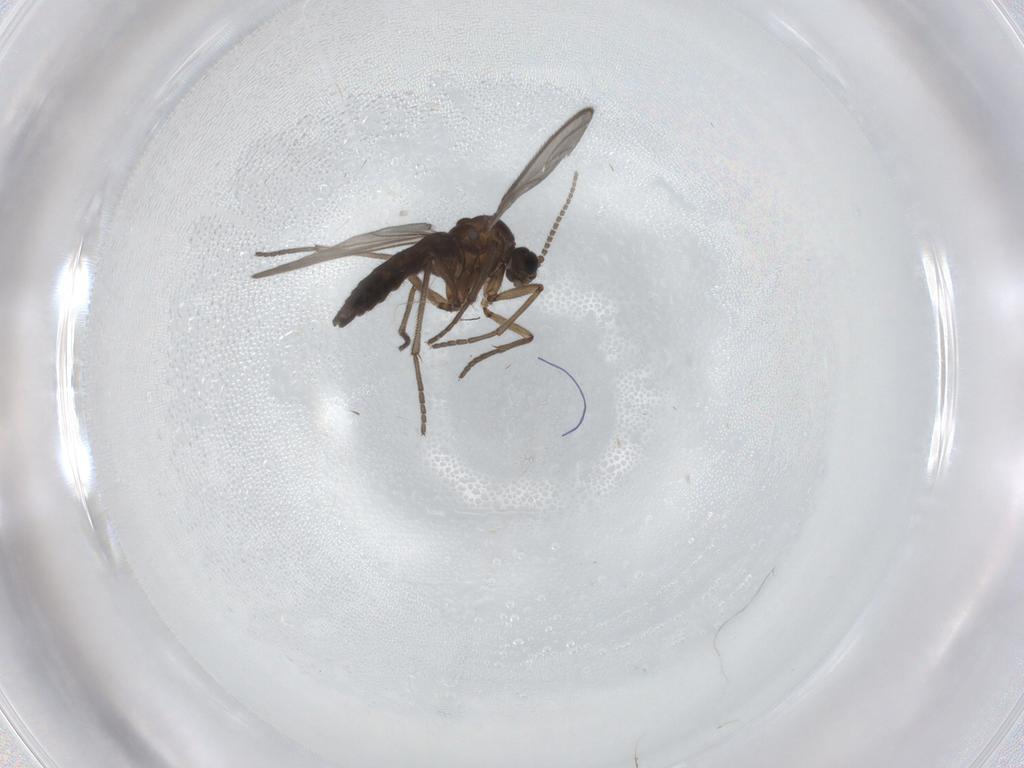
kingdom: Animalia
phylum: Arthropoda
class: Insecta
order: Diptera
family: Sciaridae
